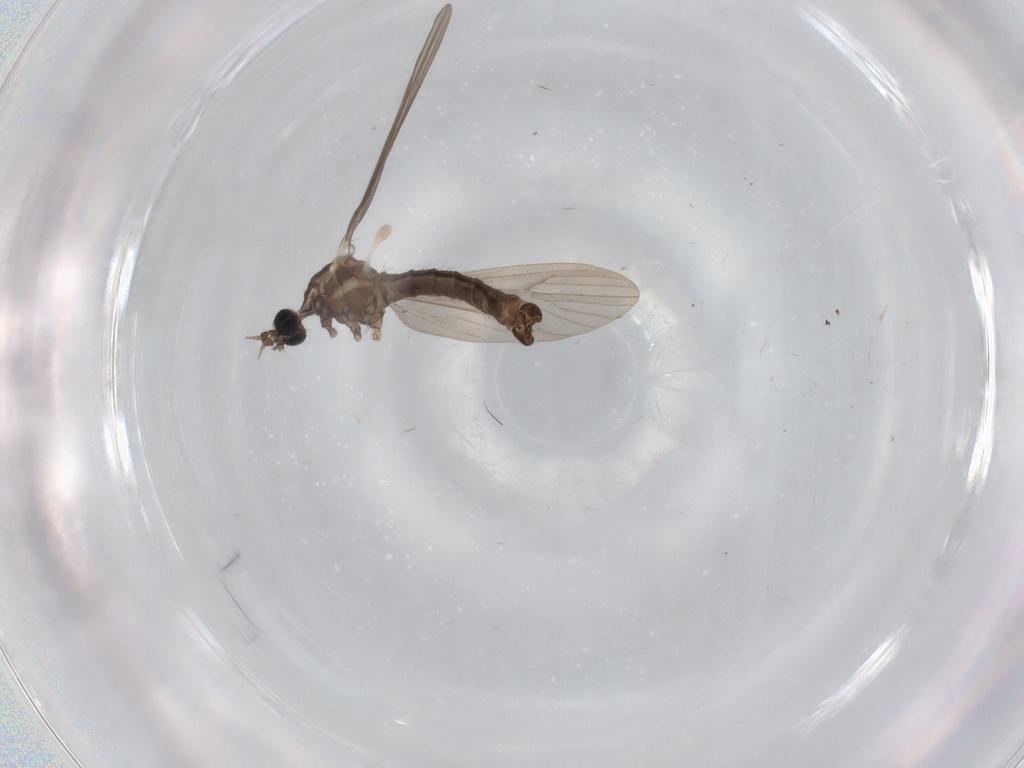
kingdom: Animalia
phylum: Arthropoda
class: Insecta
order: Diptera
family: Cecidomyiidae
